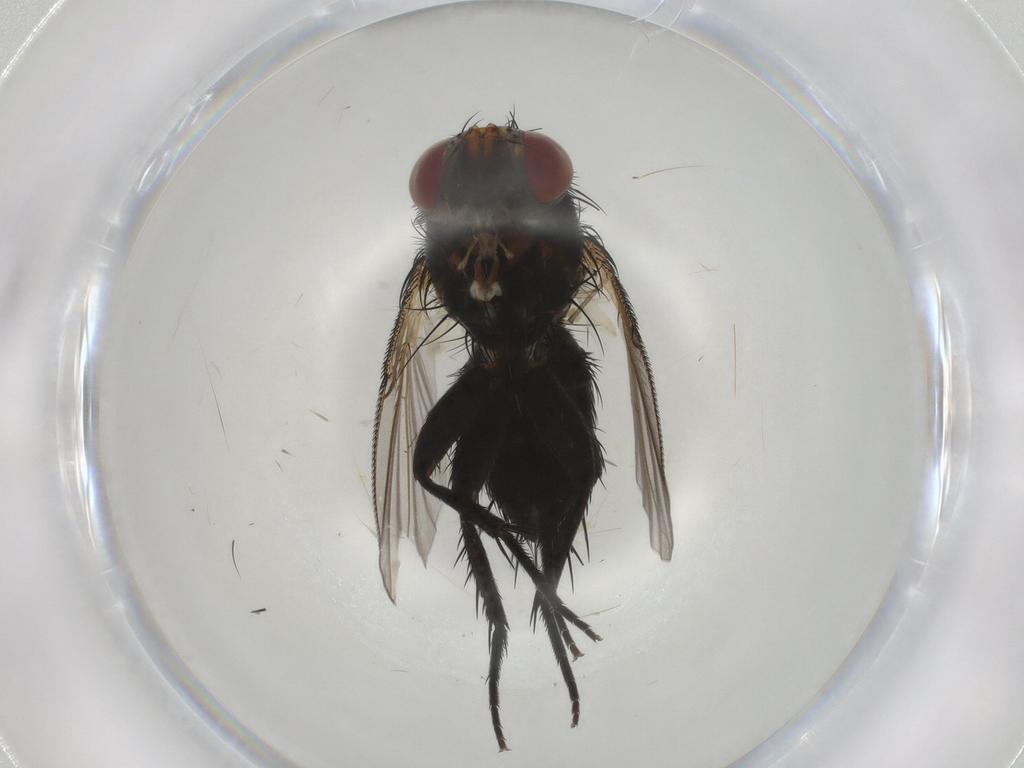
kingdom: Animalia
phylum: Arthropoda
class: Insecta
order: Diptera
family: Tachinidae
